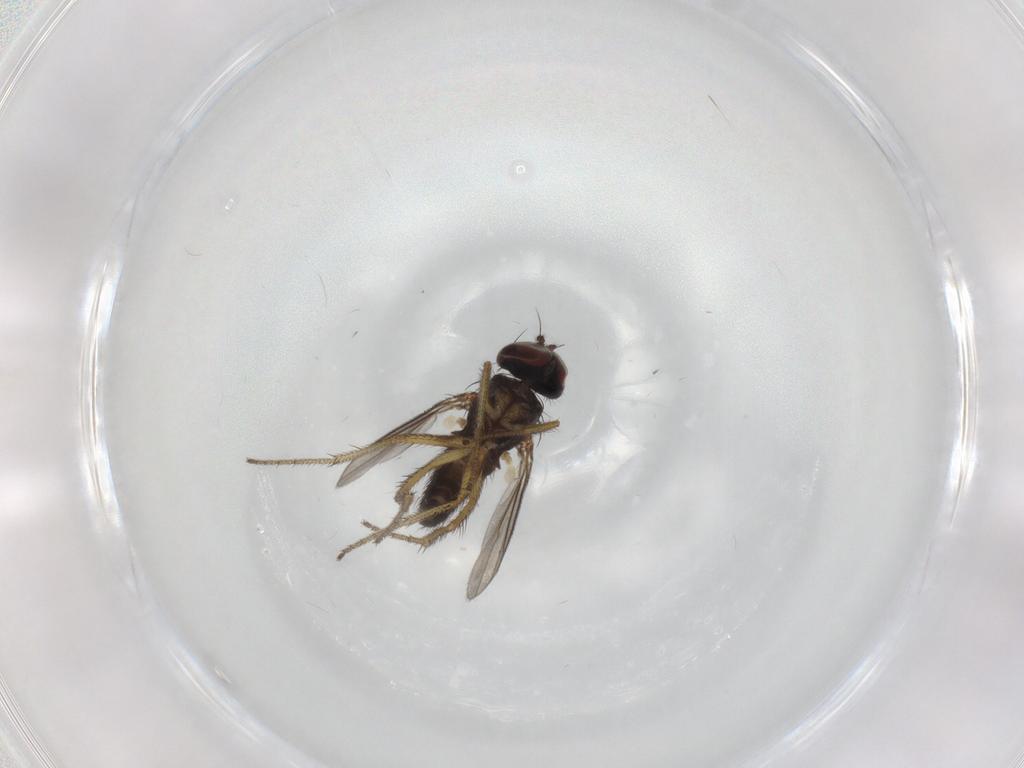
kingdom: Animalia
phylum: Arthropoda
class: Insecta
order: Diptera
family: Chironomidae
